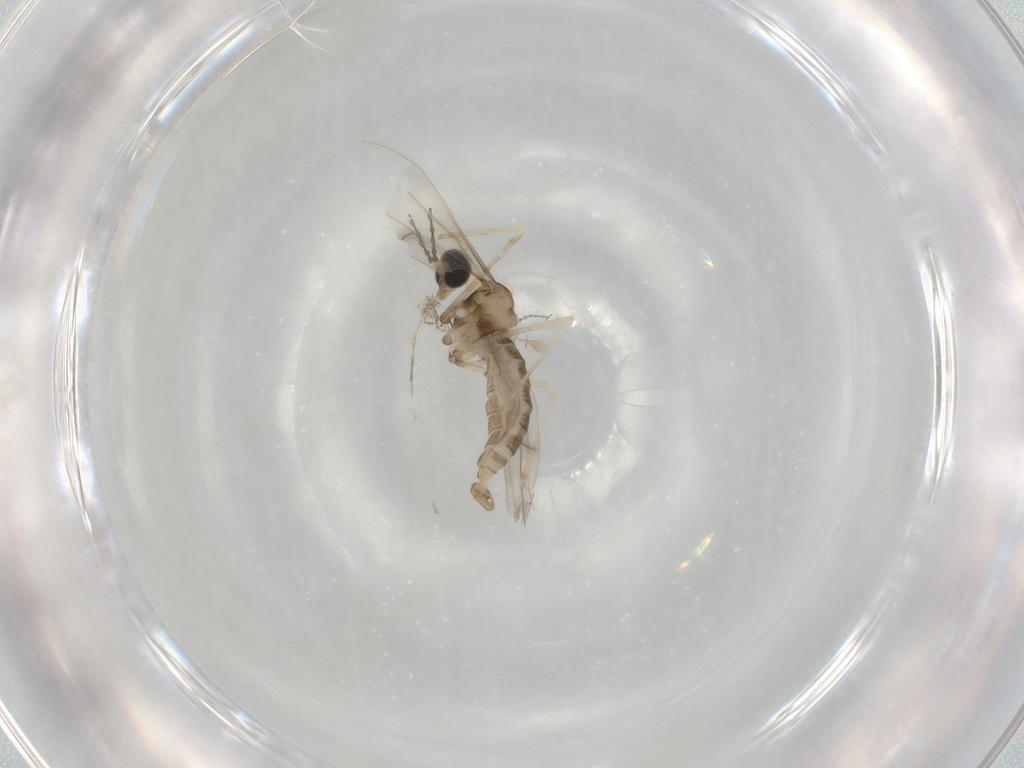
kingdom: Animalia
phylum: Arthropoda
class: Insecta
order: Diptera
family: Cecidomyiidae
